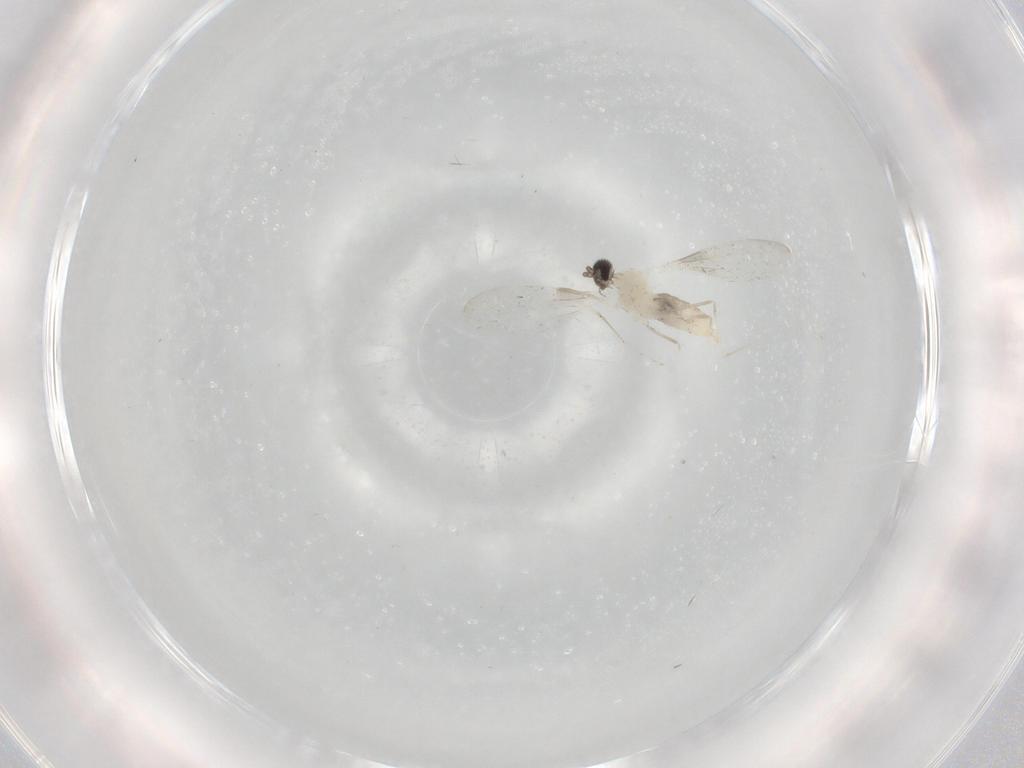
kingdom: Animalia
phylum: Arthropoda
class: Insecta
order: Diptera
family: Cecidomyiidae
